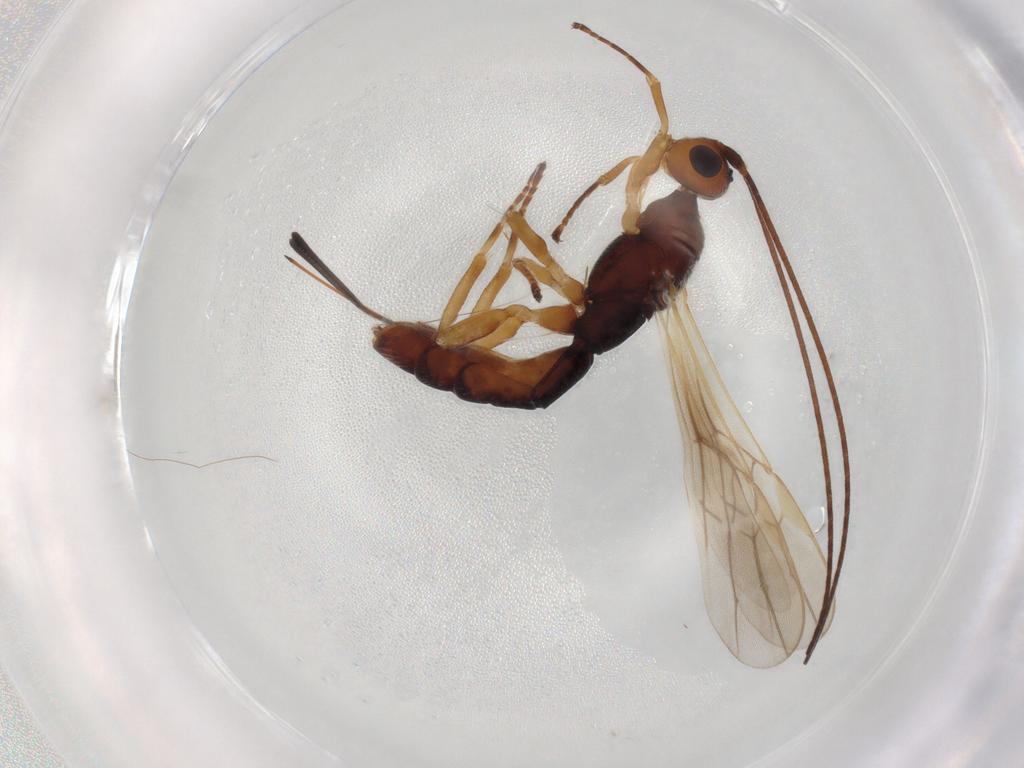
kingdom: Animalia
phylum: Arthropoda
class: Insecta
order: Hymenoptera
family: Braconidae
